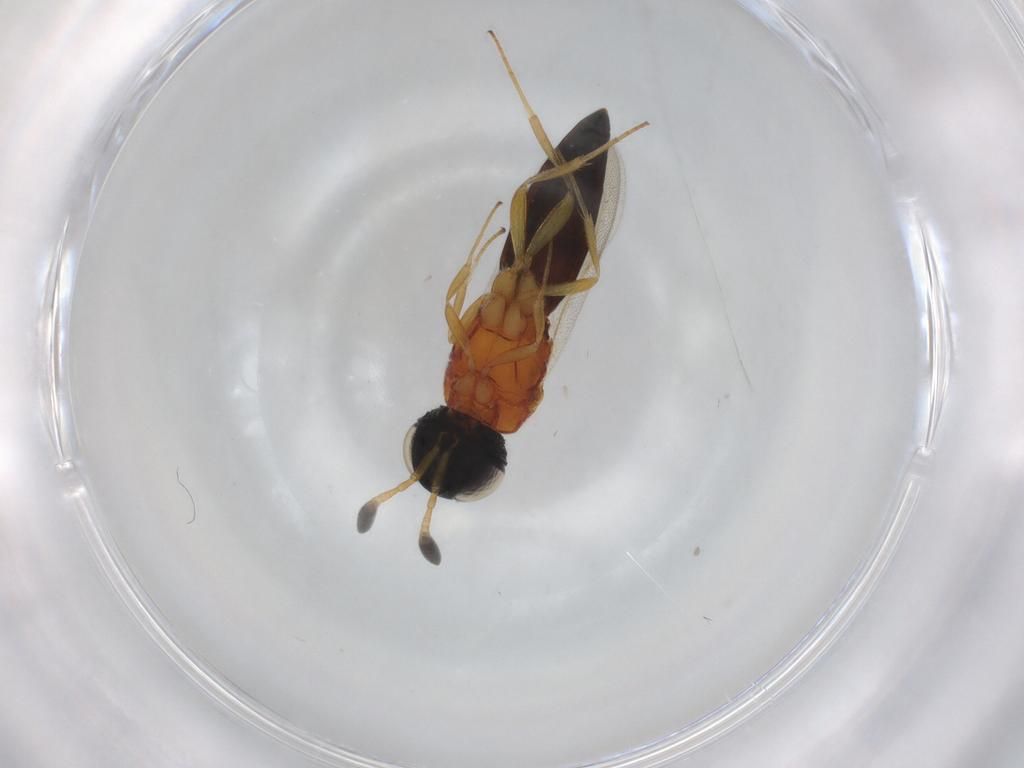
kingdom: Animalia
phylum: Arthropoda
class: Insecta
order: Hymenoptera
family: Scelionidae
